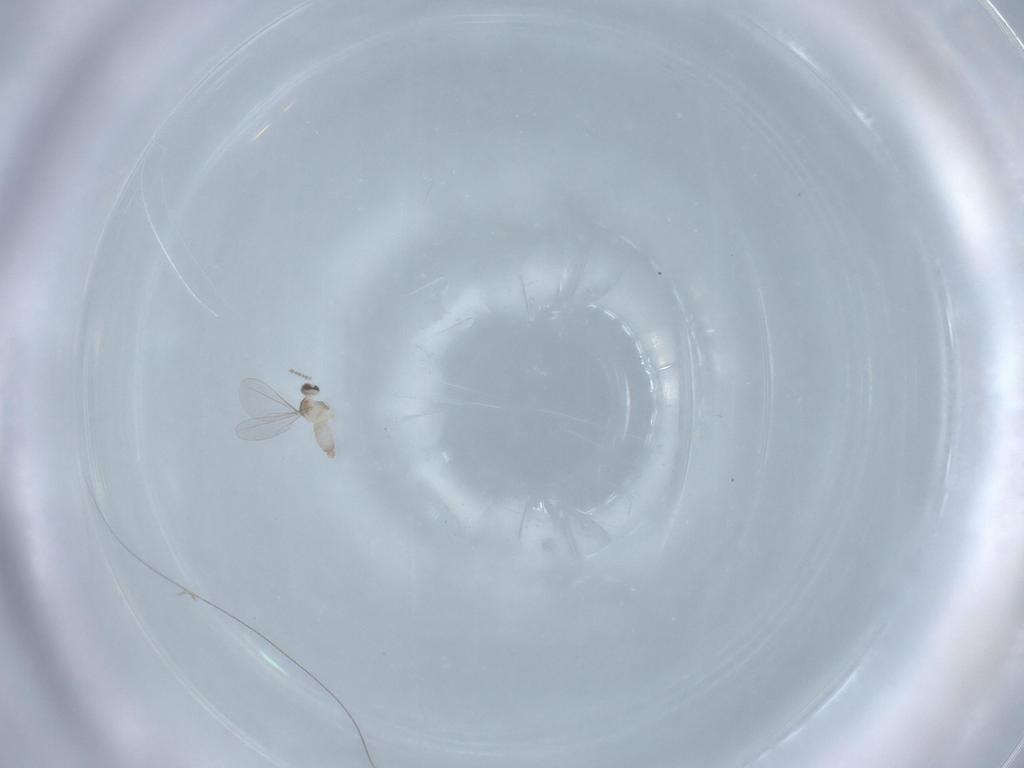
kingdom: Animalia
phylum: Arthropoda
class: Insecta
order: Diptera
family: Cecidomyiidae
